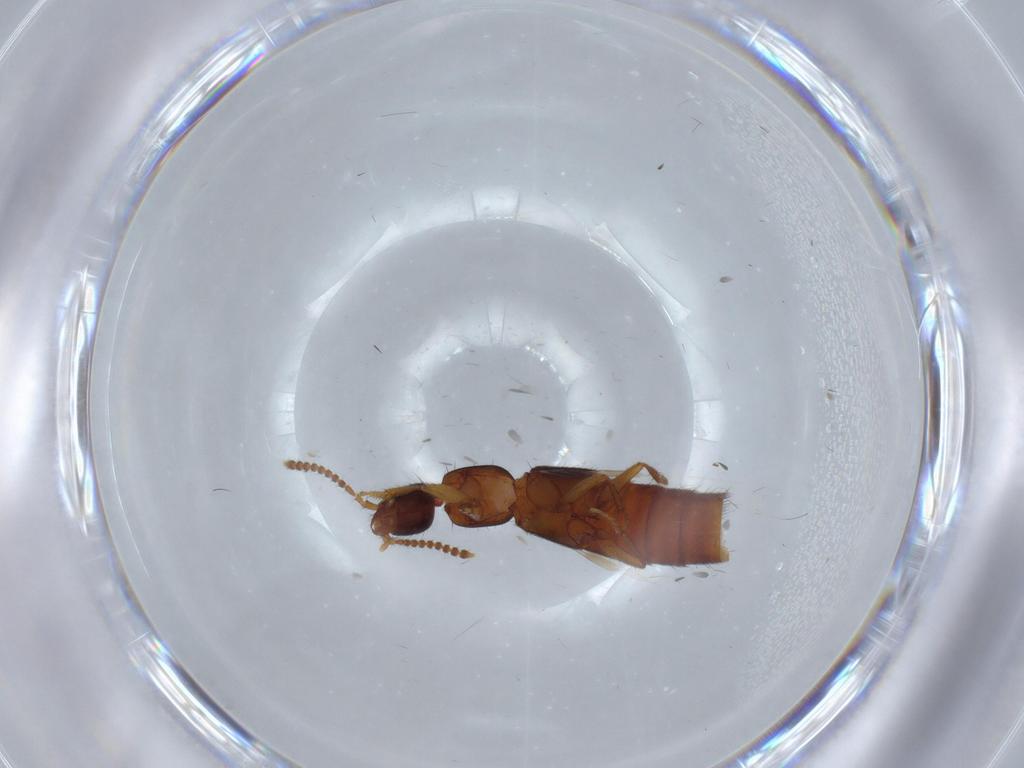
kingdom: Animalia
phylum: Arthropoda
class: Insecta
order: Coleoptera
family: Staphylinidae
